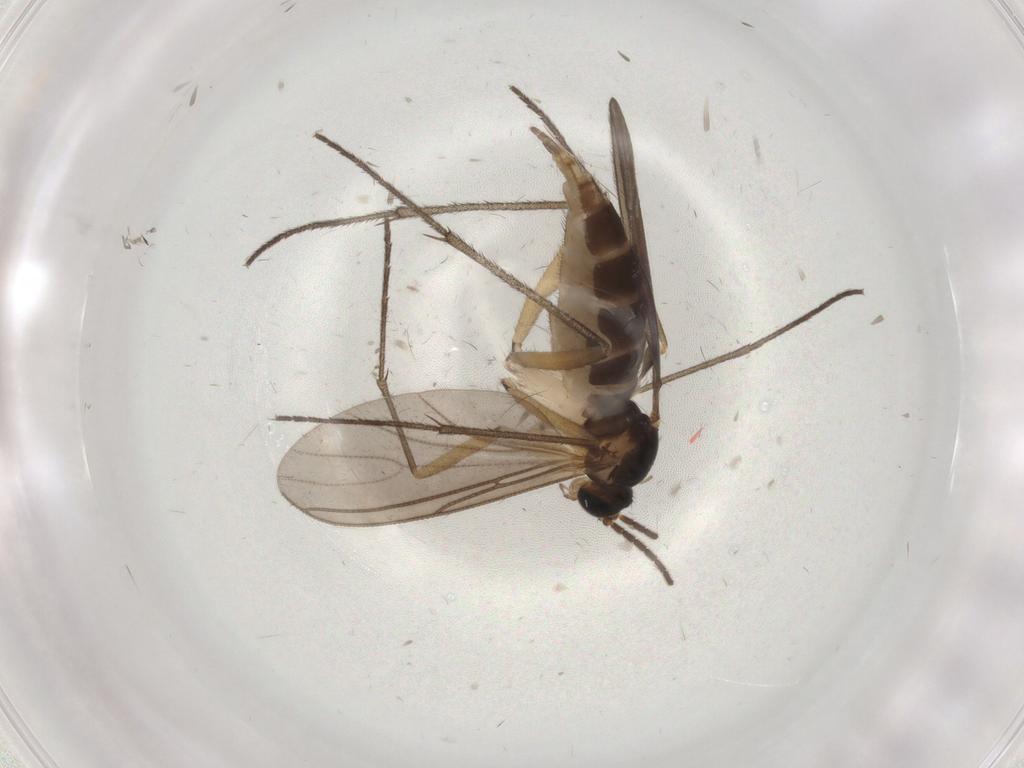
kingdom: Animalia
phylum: Arthropoda
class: Insecta
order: Diptera
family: Sciaridae
